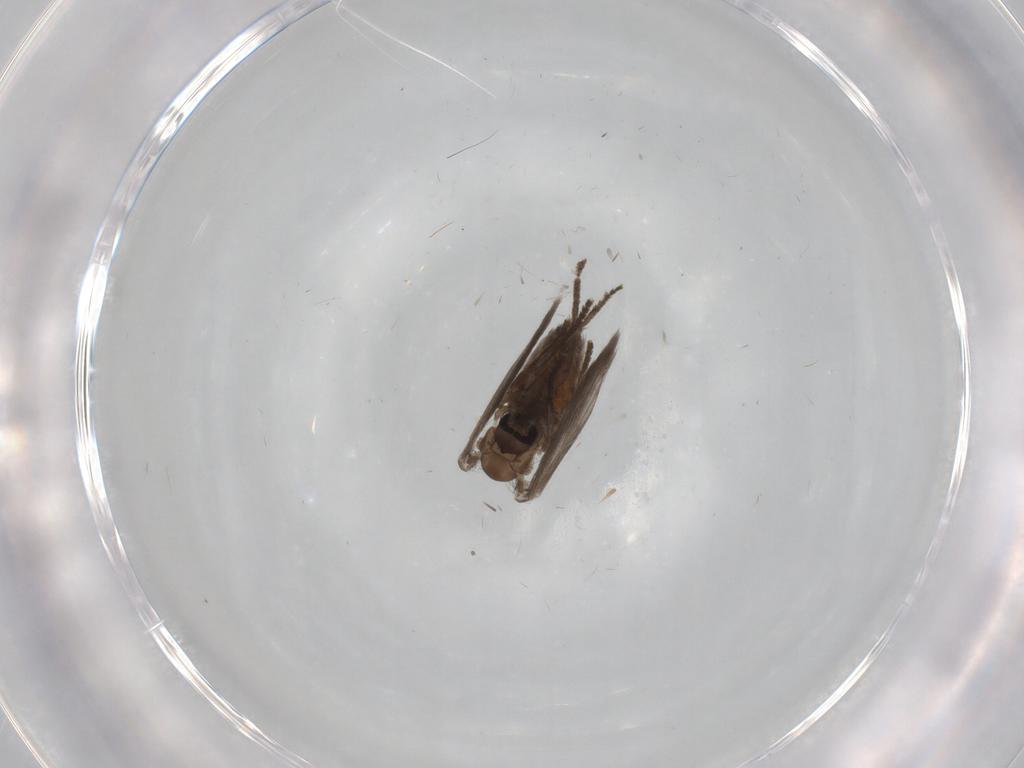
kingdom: Animalia
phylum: Arthropoda
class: Insecta
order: Diptera
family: Psychodidae
